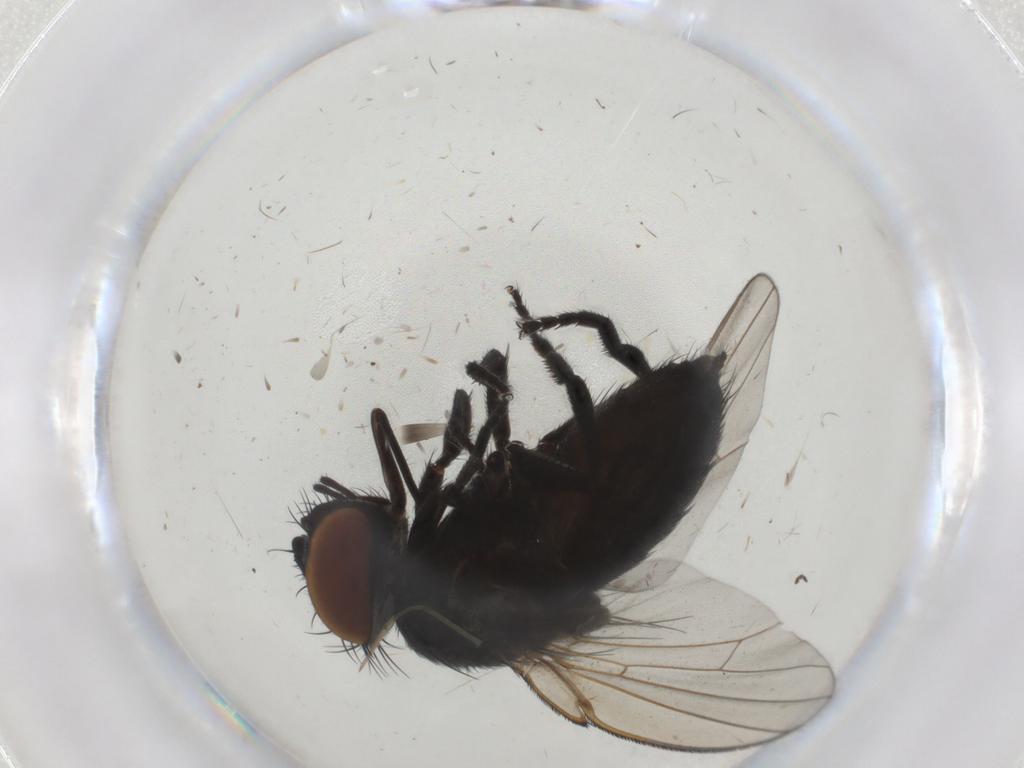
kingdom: Animalia
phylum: Arthropoda
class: Insecta
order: Diptera
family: Milichiidae
